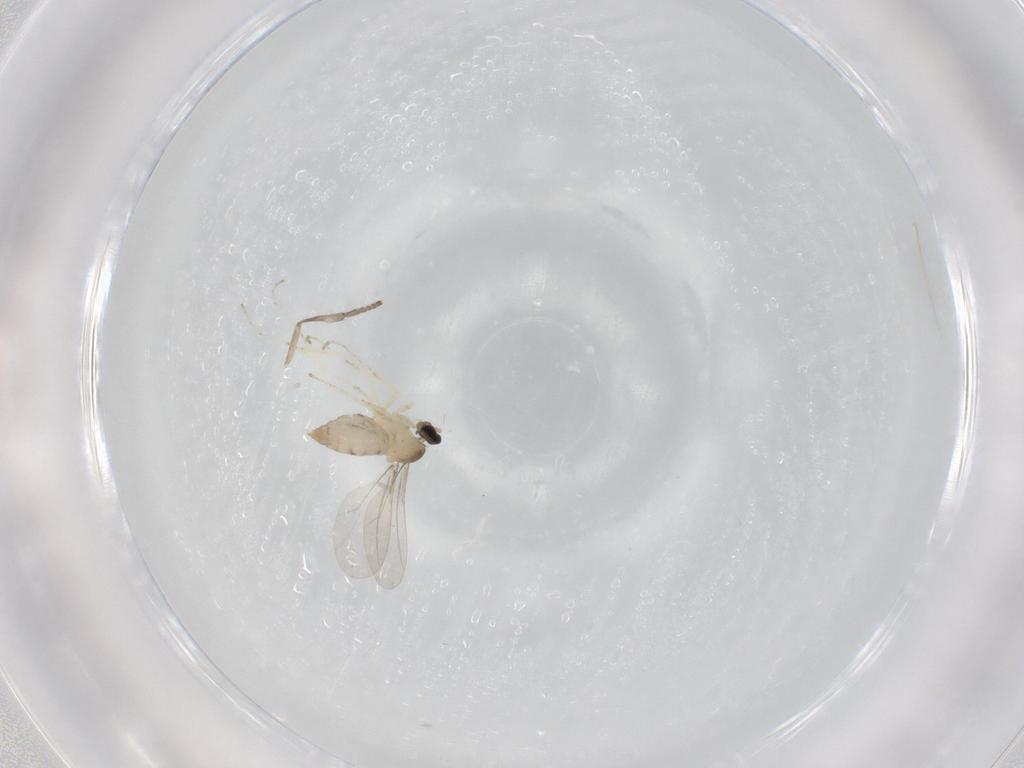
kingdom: Animalia
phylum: Arthropoda
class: Insecta
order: Diptera
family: Cecidomyiidae
